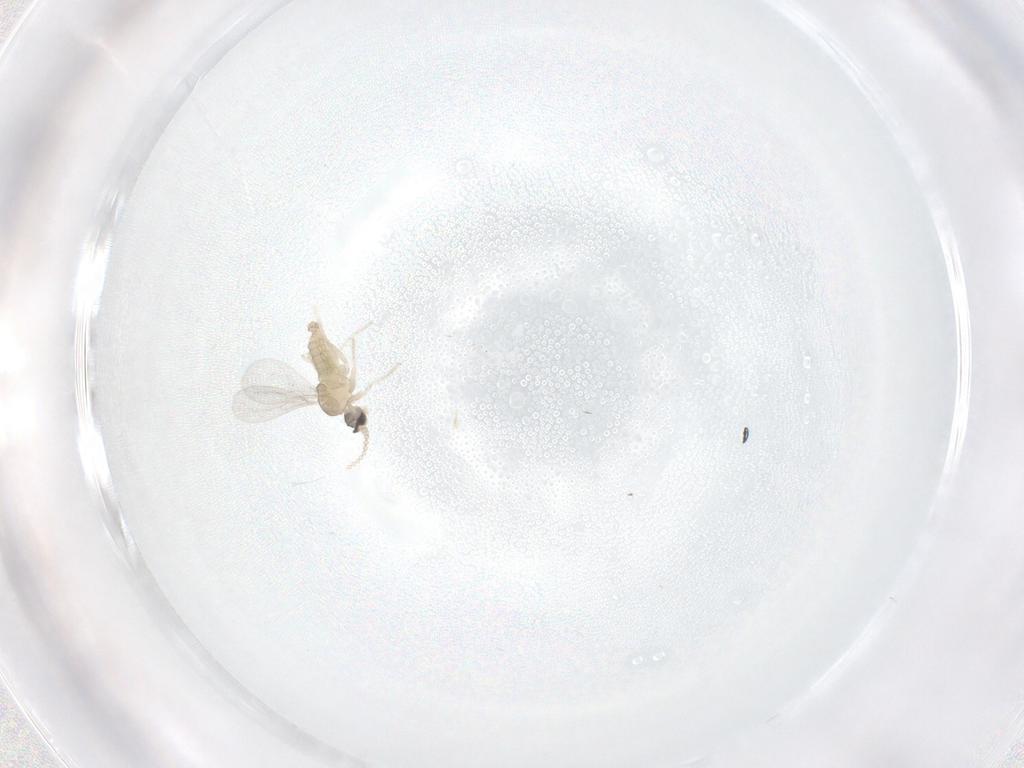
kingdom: Animalia
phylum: Arthropoda
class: Insecta
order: Diptera
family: Cecidomyiidae
